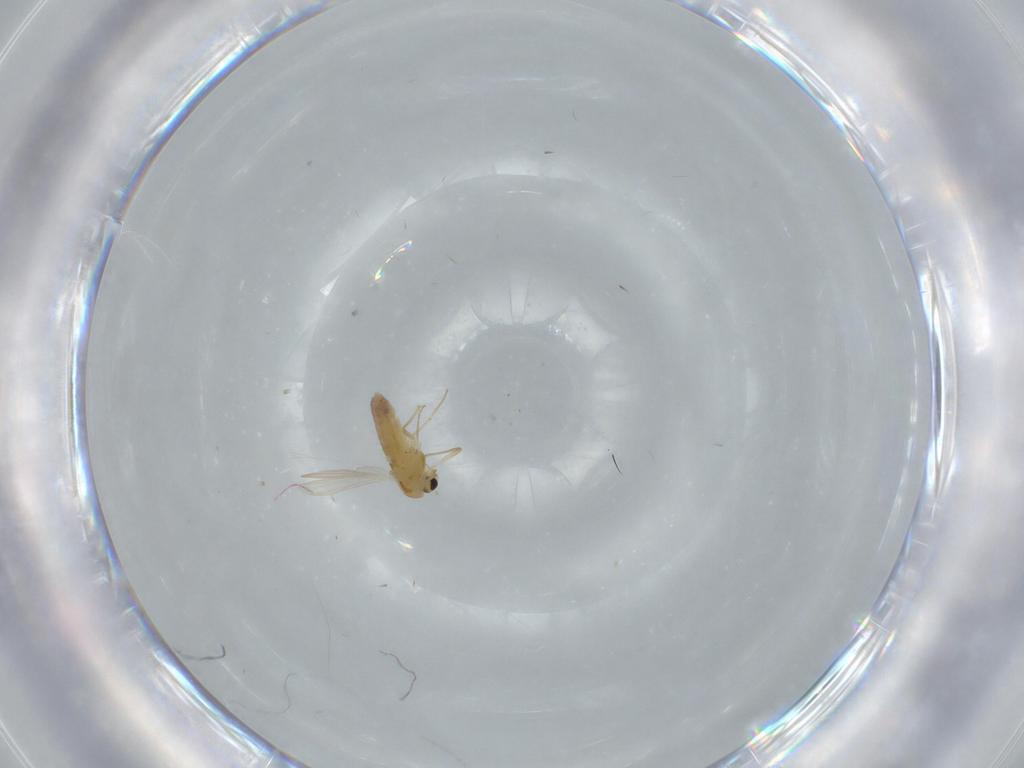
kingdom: Animalia
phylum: Arthropoda
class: Insecta
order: Diptera
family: Chironomidae
